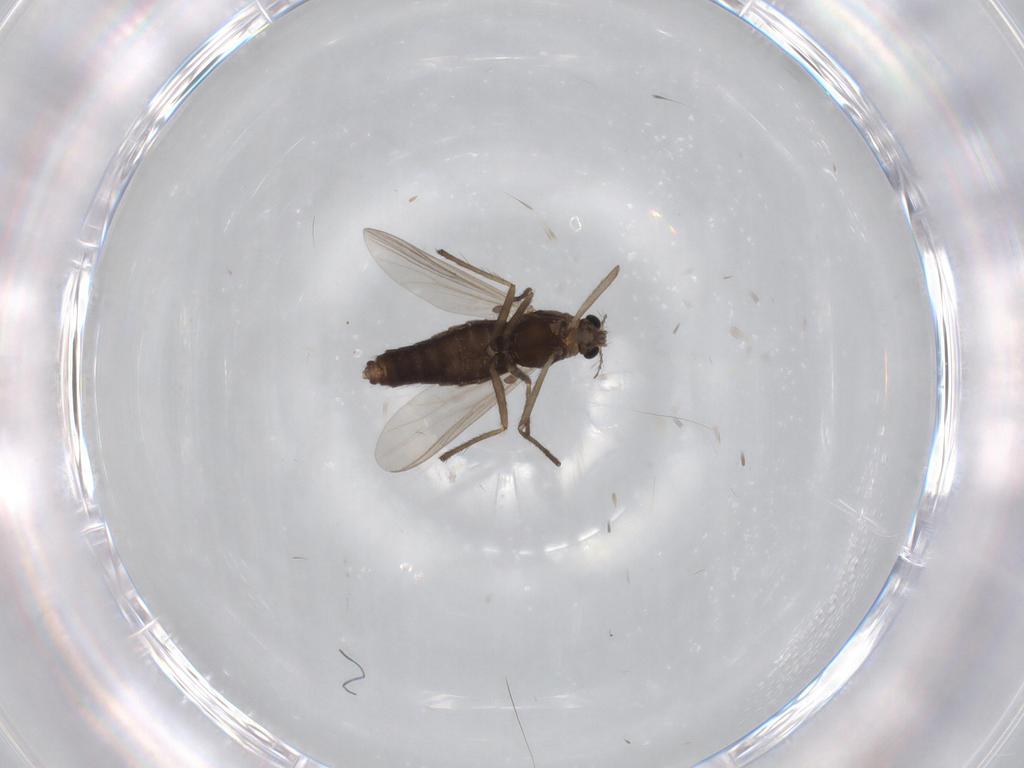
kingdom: Animalia
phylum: Arthropoda
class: Insecta
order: Diptera
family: Chironomidae
